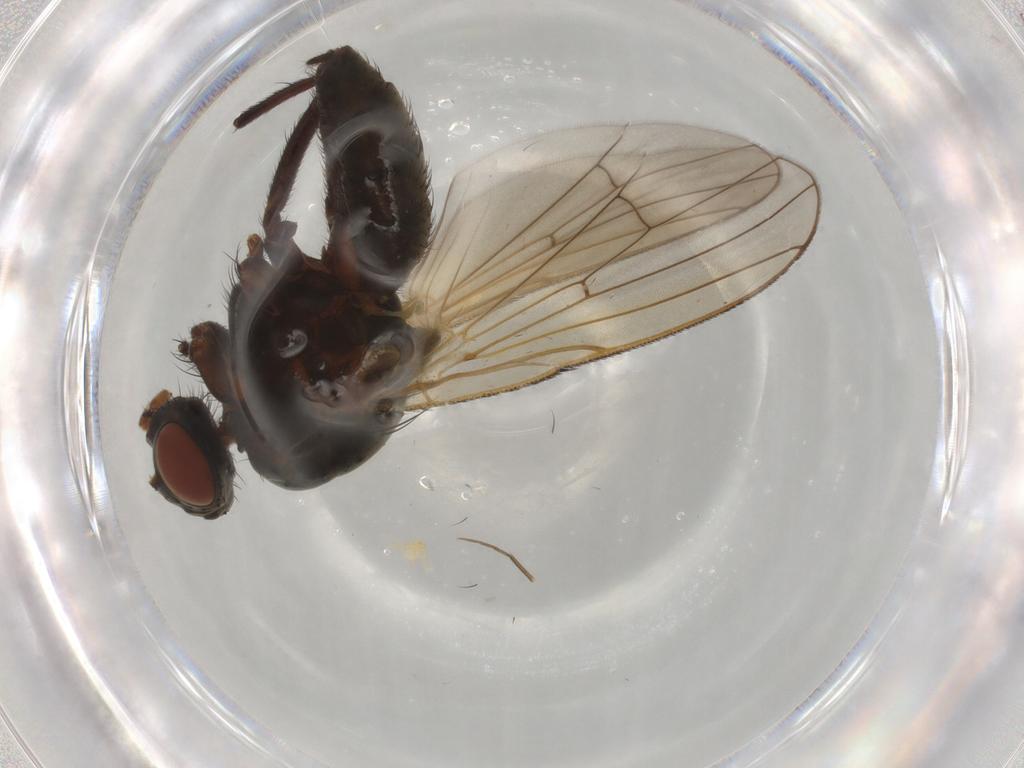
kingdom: Animalia
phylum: Arthropoda
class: Insecta
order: Diptera
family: Anthomyiidae
